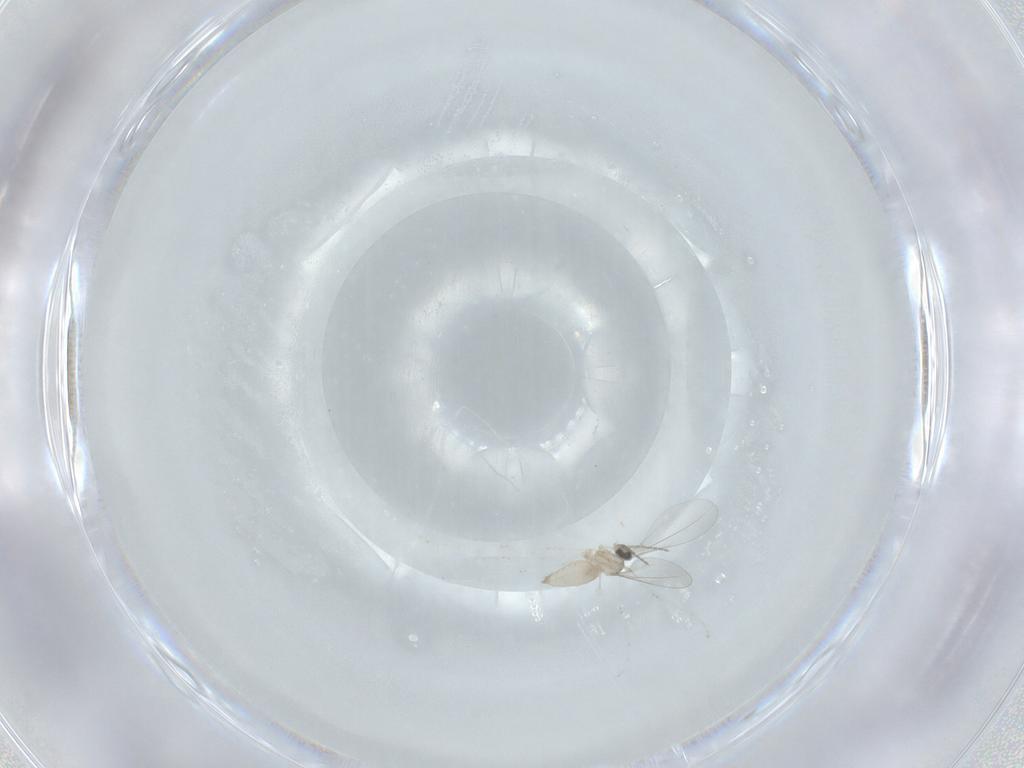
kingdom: Animalia
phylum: Arthropoda
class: Insecta
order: Diptera
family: Cecidomyiidae
